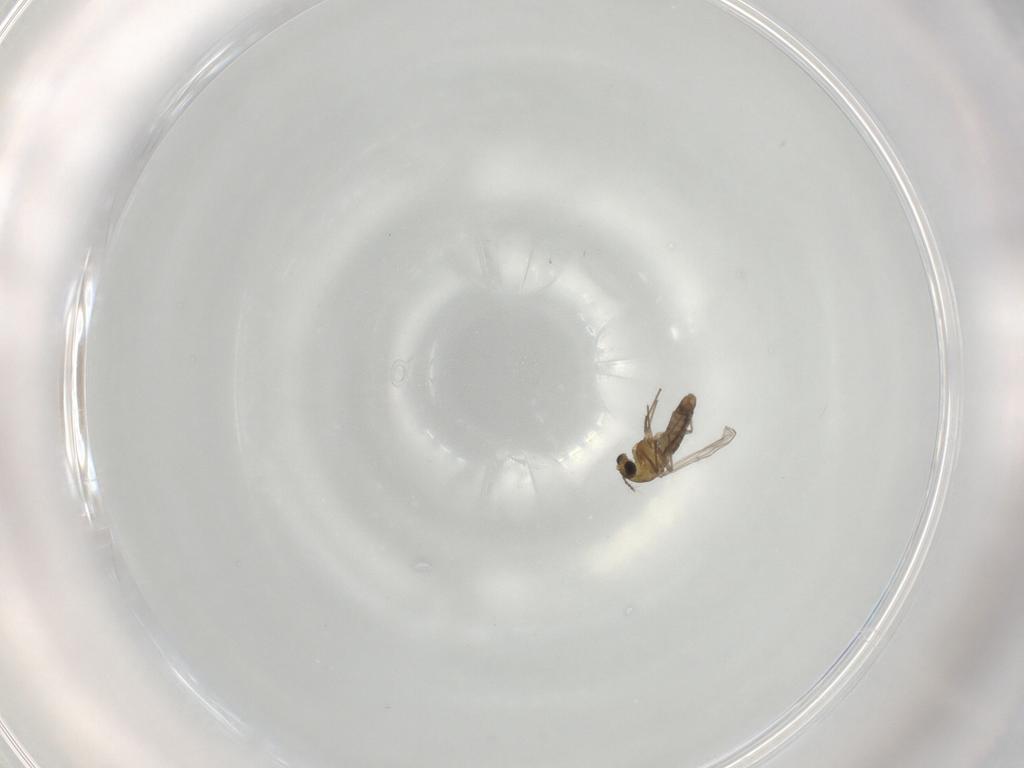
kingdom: Animalia
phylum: Arthropoda
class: Insecta
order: Diptera
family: Chironomidae
